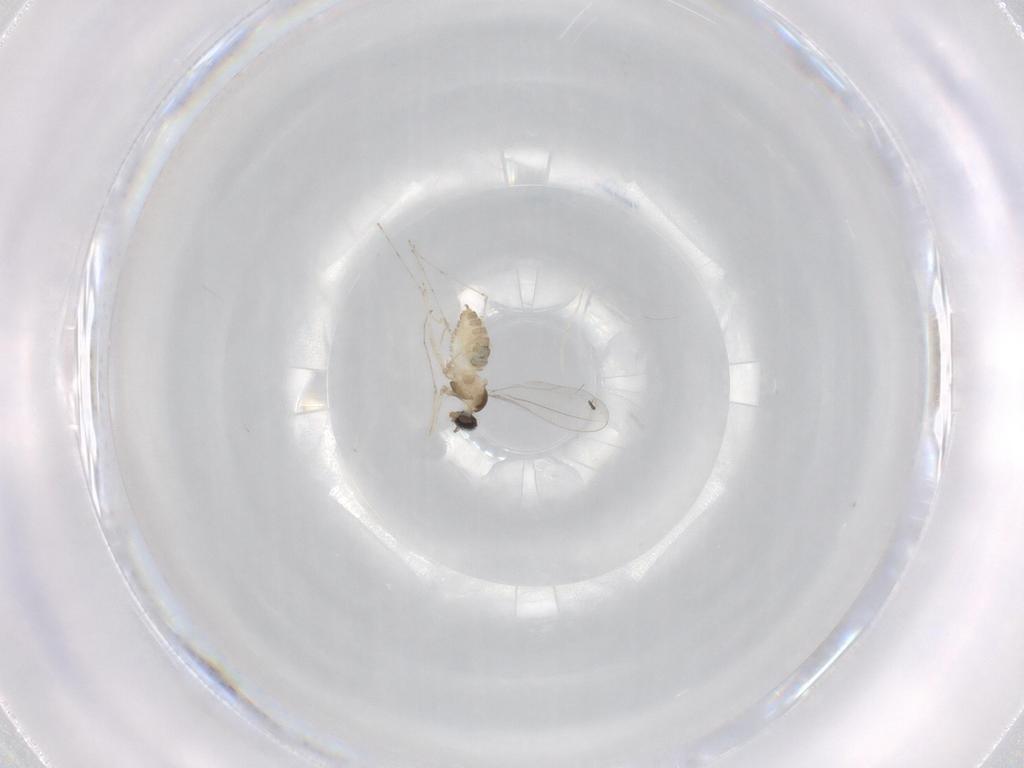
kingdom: Animalia
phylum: Arthropoda
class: Insecta
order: Diptera
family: Cecidomyiidae
